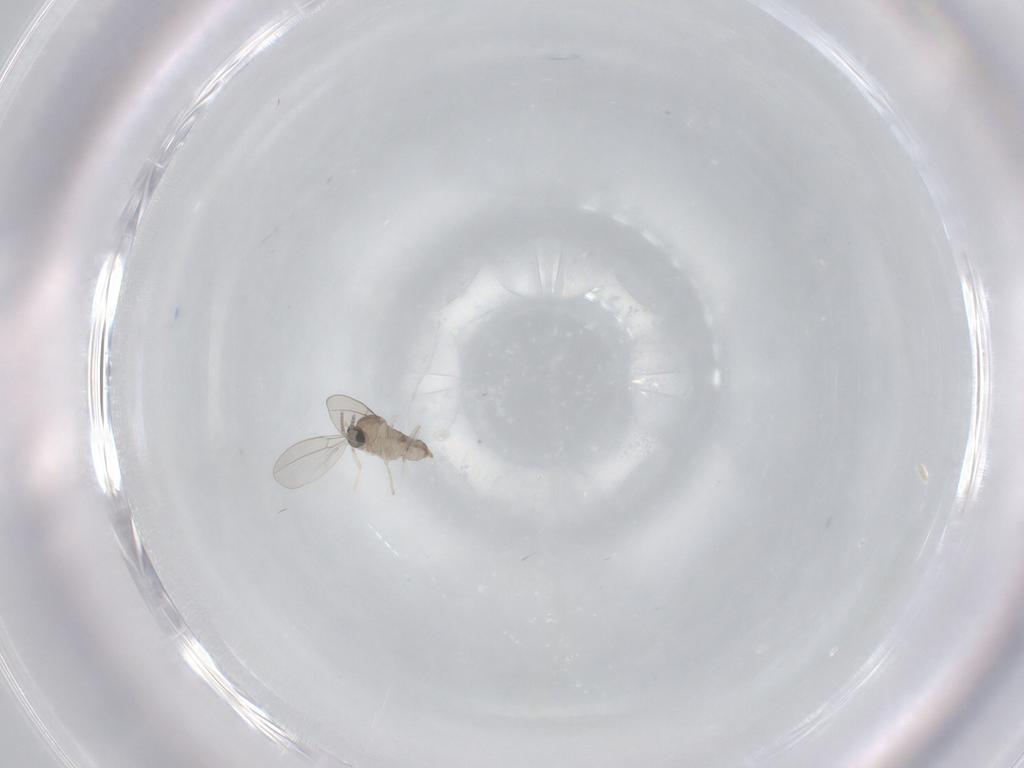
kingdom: Animalia
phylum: Arthropoda
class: Insecta
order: Diptera
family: Cecidomyiidae
